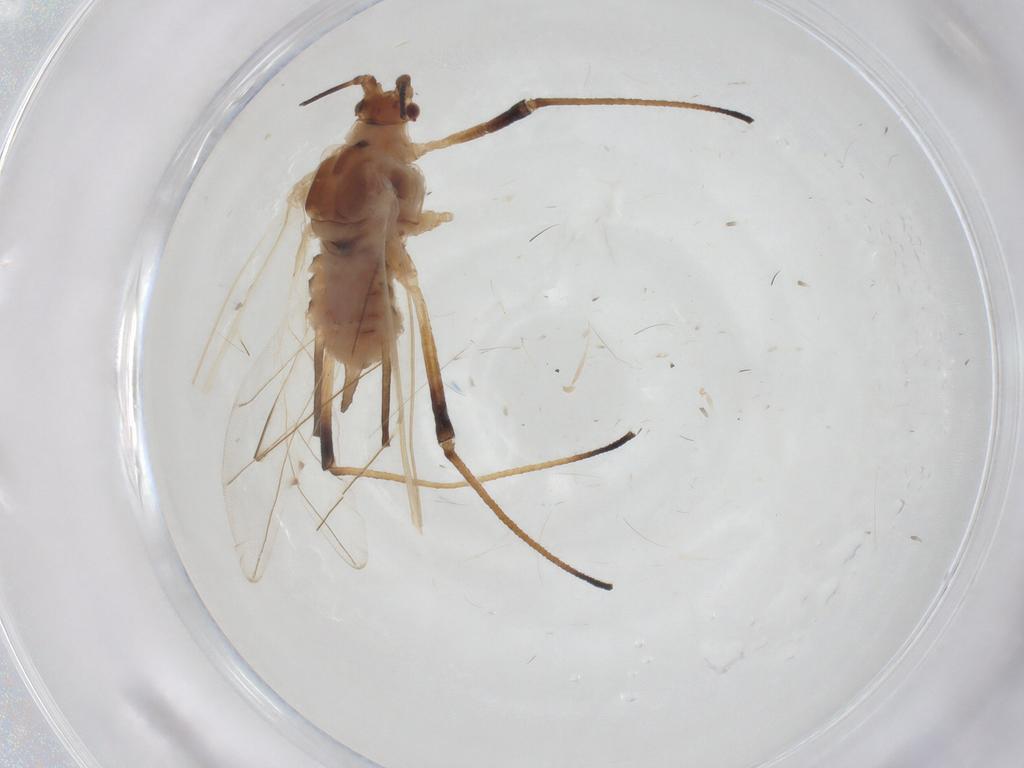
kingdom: Animalia
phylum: Arthropoda
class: Insecta
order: Hemiptera
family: Aphididae
